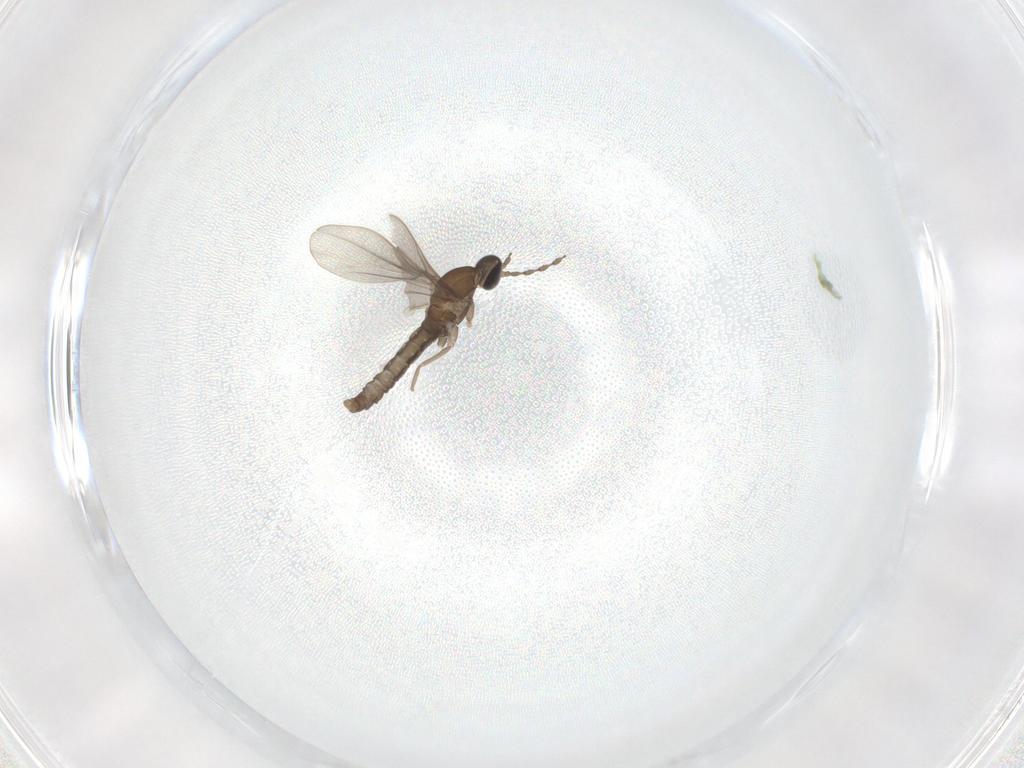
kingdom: Animalia
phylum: Arthropoda
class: Insecta
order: Diptera
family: Cecidomyiidae
